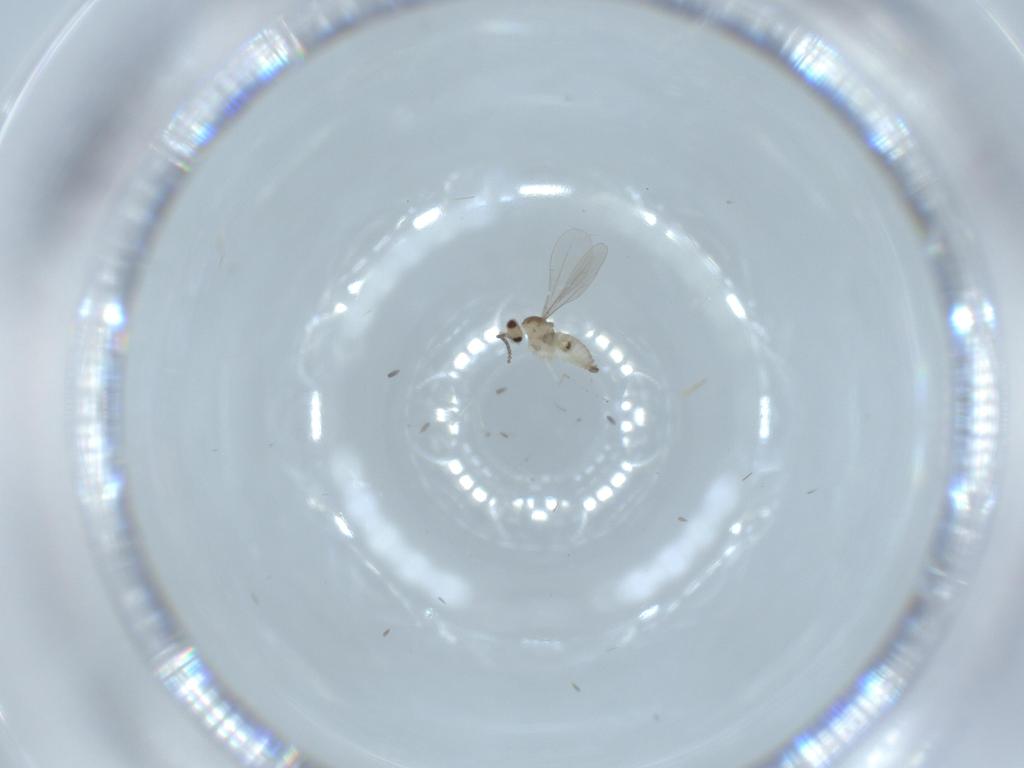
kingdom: Animalia
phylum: Arthropoda
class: Insecta
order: Diptera
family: Cecidomyiidae
